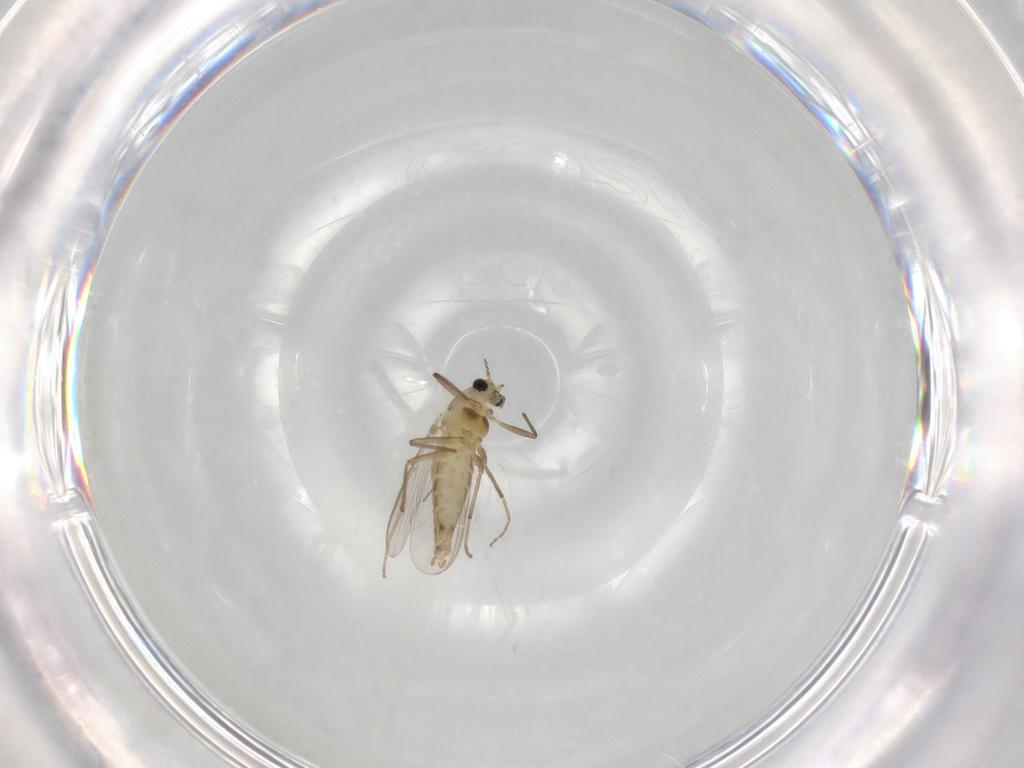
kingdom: Animalia
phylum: Arthropoda
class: Insecta
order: Diptera
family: Chironomidae
